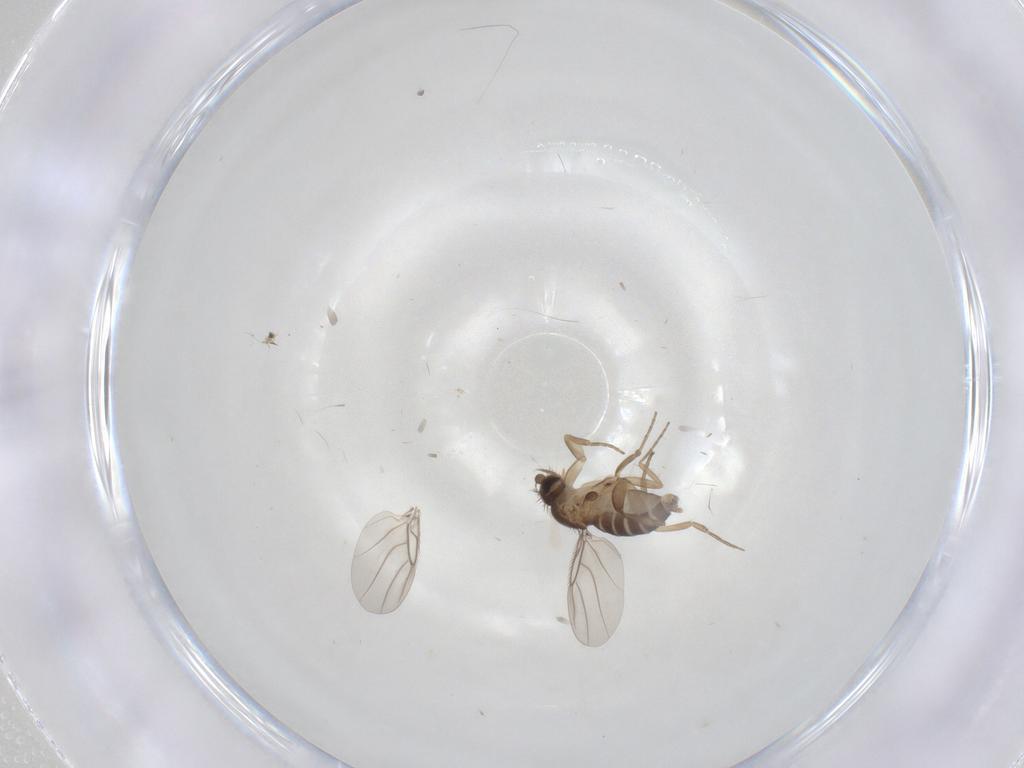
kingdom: Animalia
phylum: Arthropoda
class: Insecta
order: Diptera
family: Phoridae
